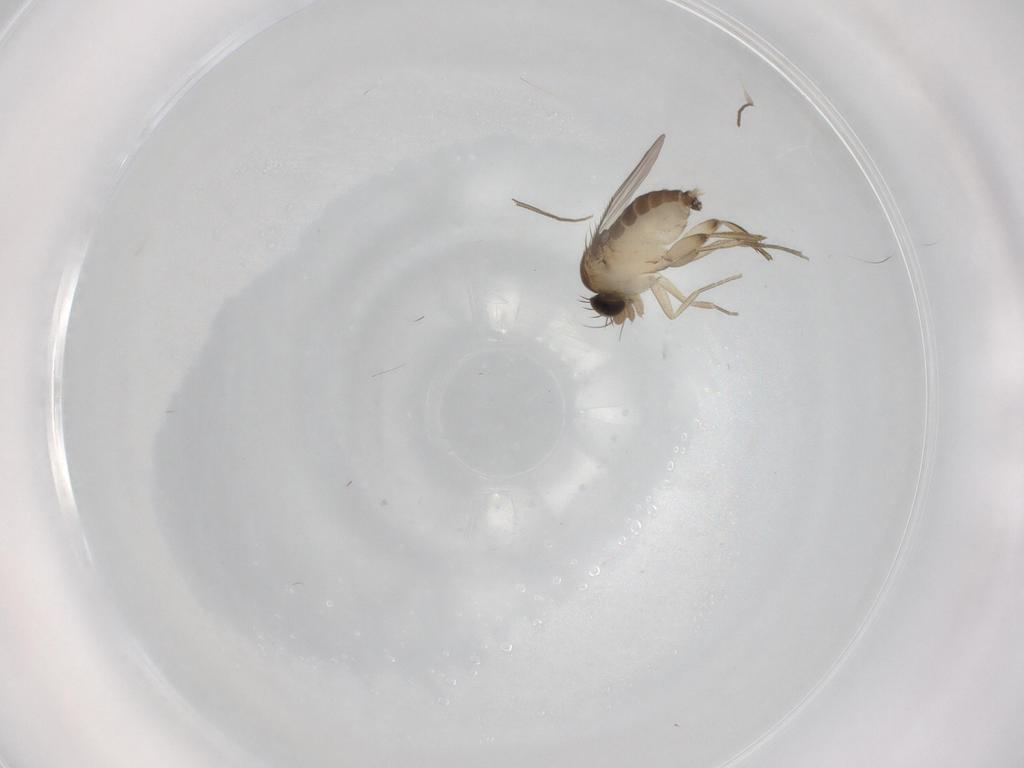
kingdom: Animalia
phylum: Arthropoda
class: Insecta
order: Diptera
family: Phoridae
